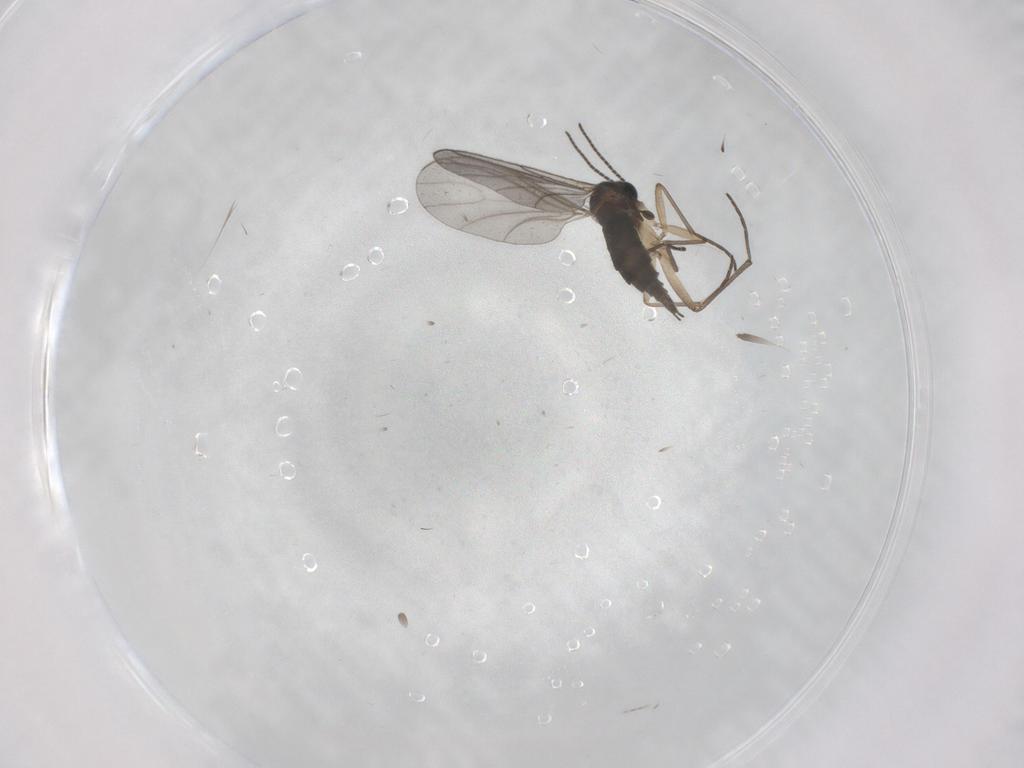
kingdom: Animalia
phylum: Arthropoda
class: Insecta
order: Diptera
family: Sciaridae
